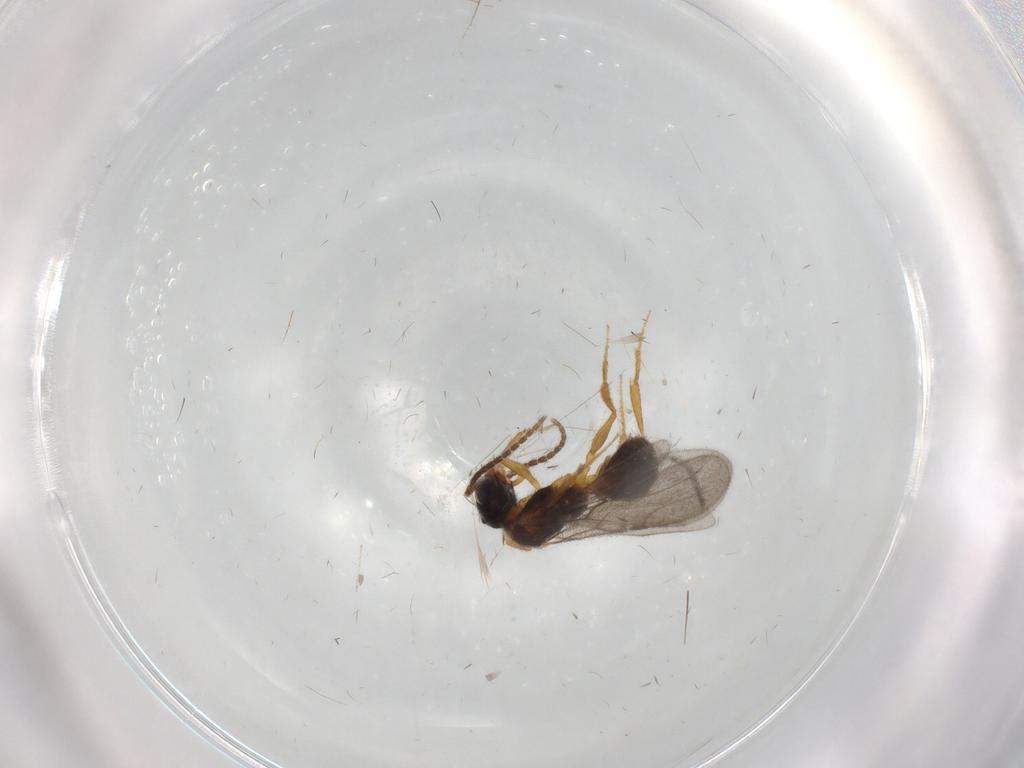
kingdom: Animalia
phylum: Arthropoda
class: Insecta
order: Hymenoptera
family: Bethylidae
